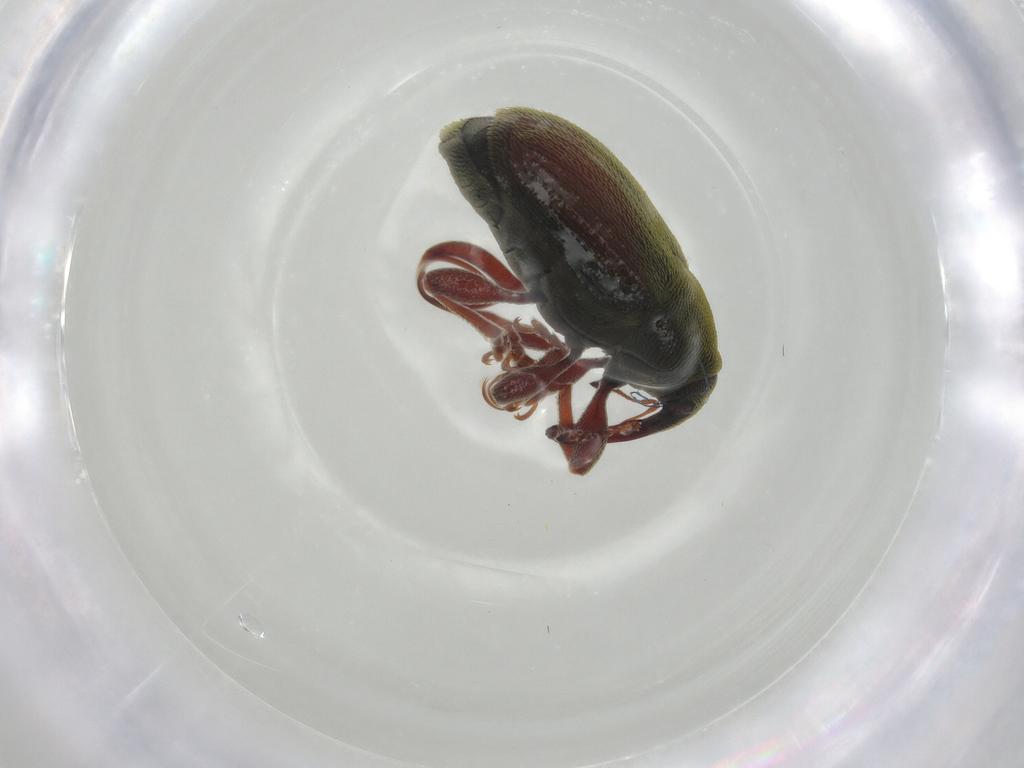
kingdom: Animalia
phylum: Arthropoda
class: Insecta
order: Coleoptera
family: Curculionidae
